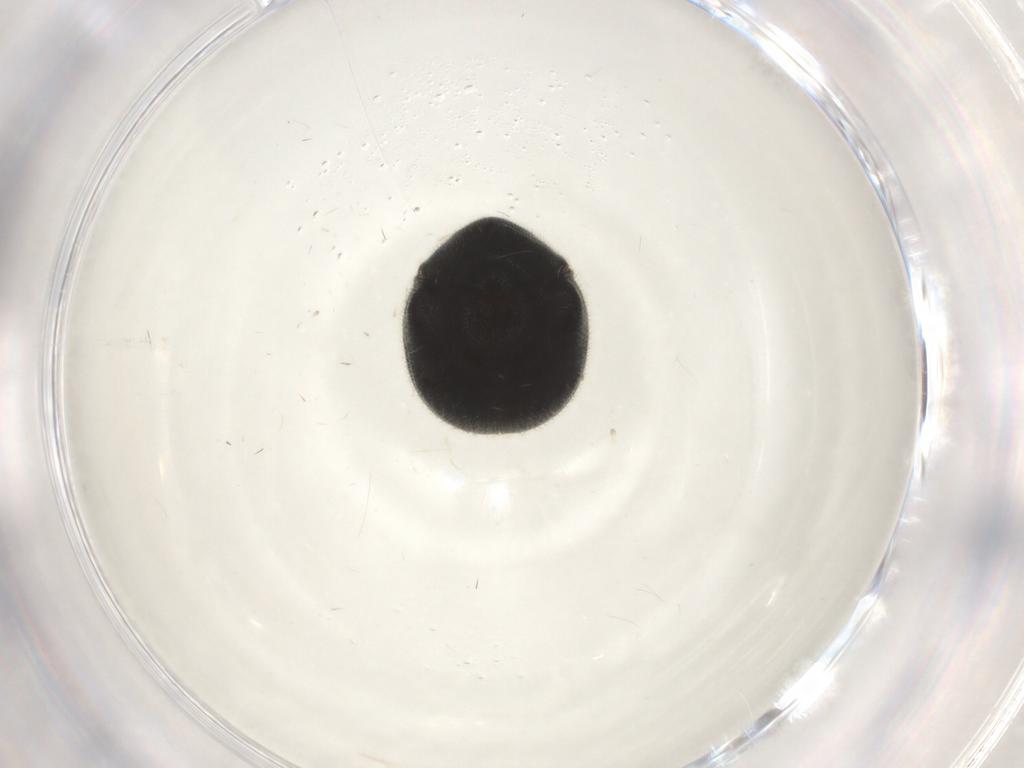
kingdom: Animalia
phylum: Arthropoda
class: Insecta
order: Coleoptera
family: Ptinidae
